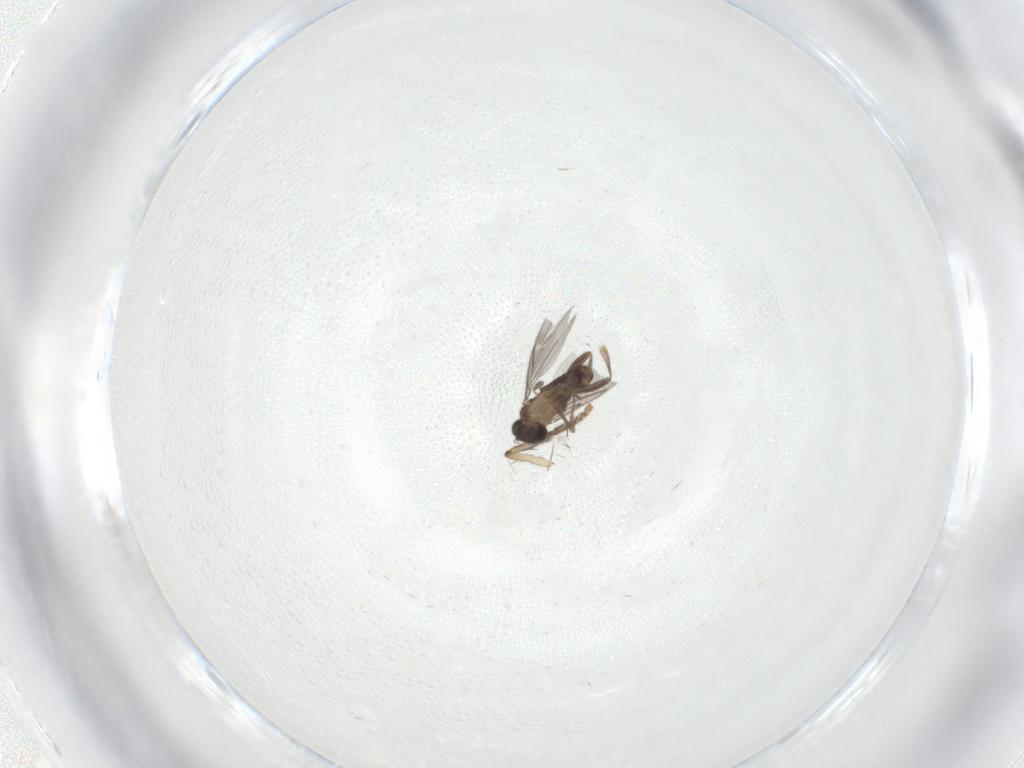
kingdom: Animalia
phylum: Arthropoda
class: Insecta
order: Diptera
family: Cecidomyiidae
